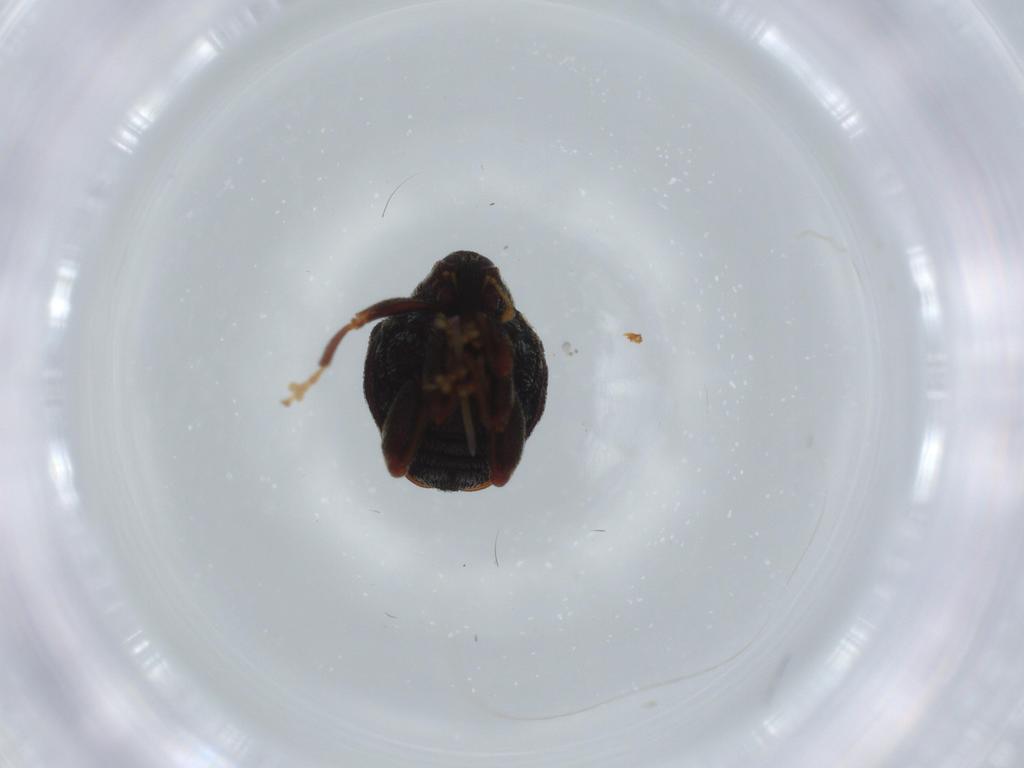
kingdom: Animalia
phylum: Arthropoda
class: Insecta
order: Coleoptera
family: Curculionidae
